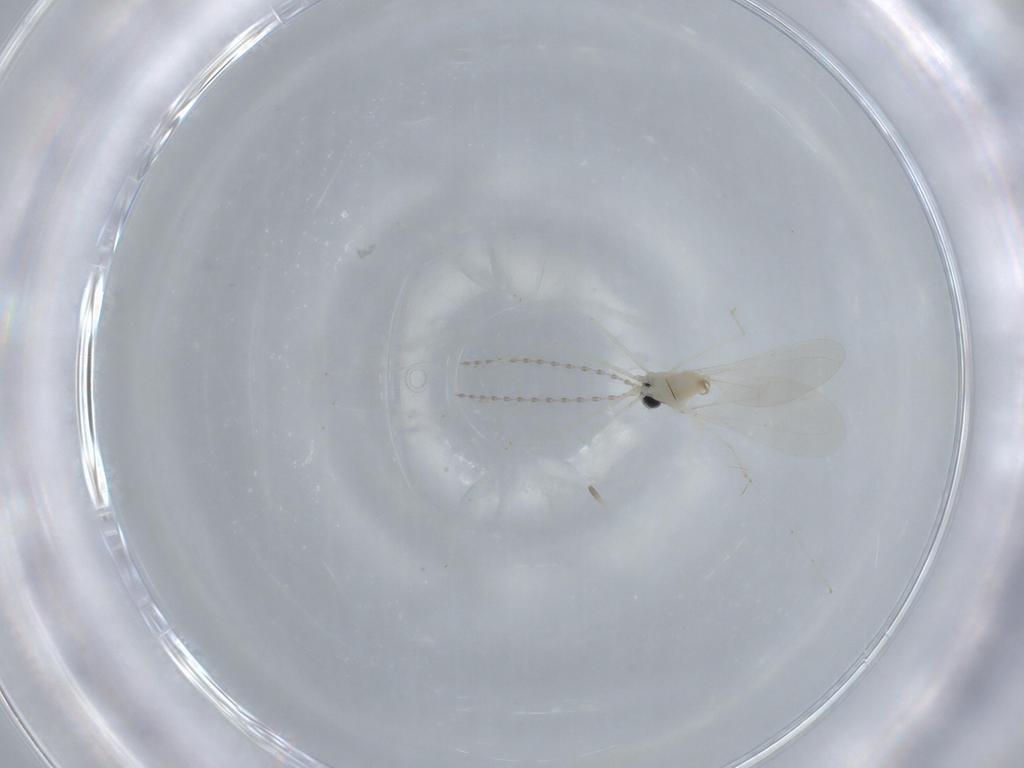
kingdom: Animalia
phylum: Arthropoda
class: Insecta
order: Diptera
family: Cecidomyiidae
